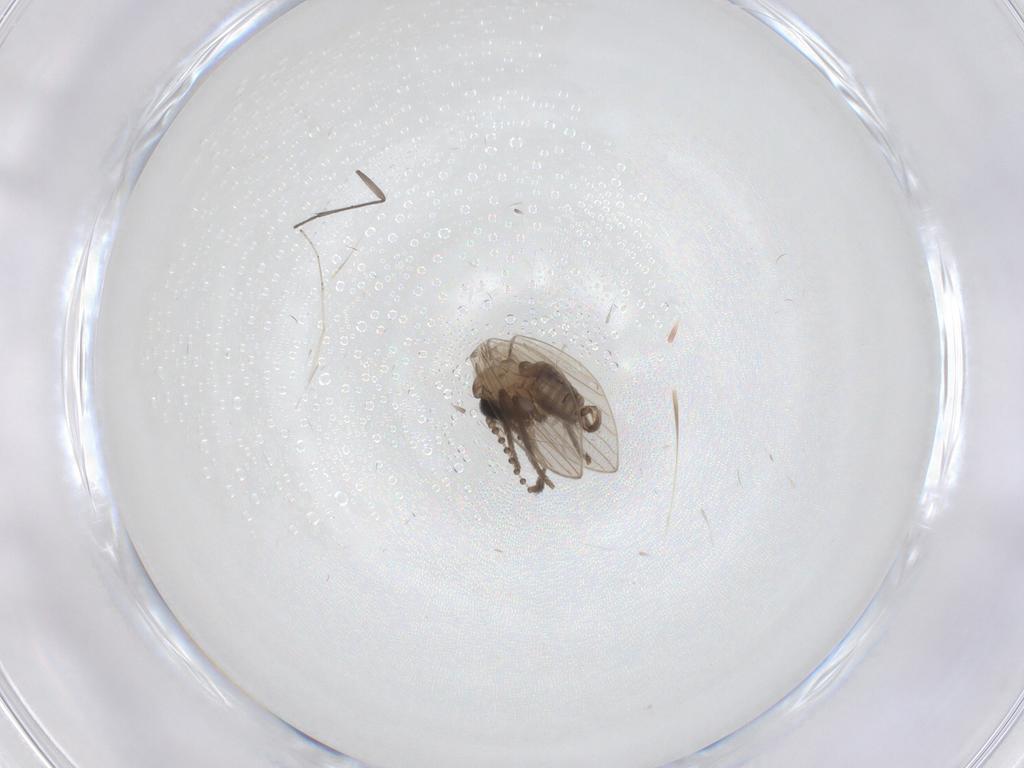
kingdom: Animalia
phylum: Arthropoda
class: Insecta
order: Diptera
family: Psychodidae
